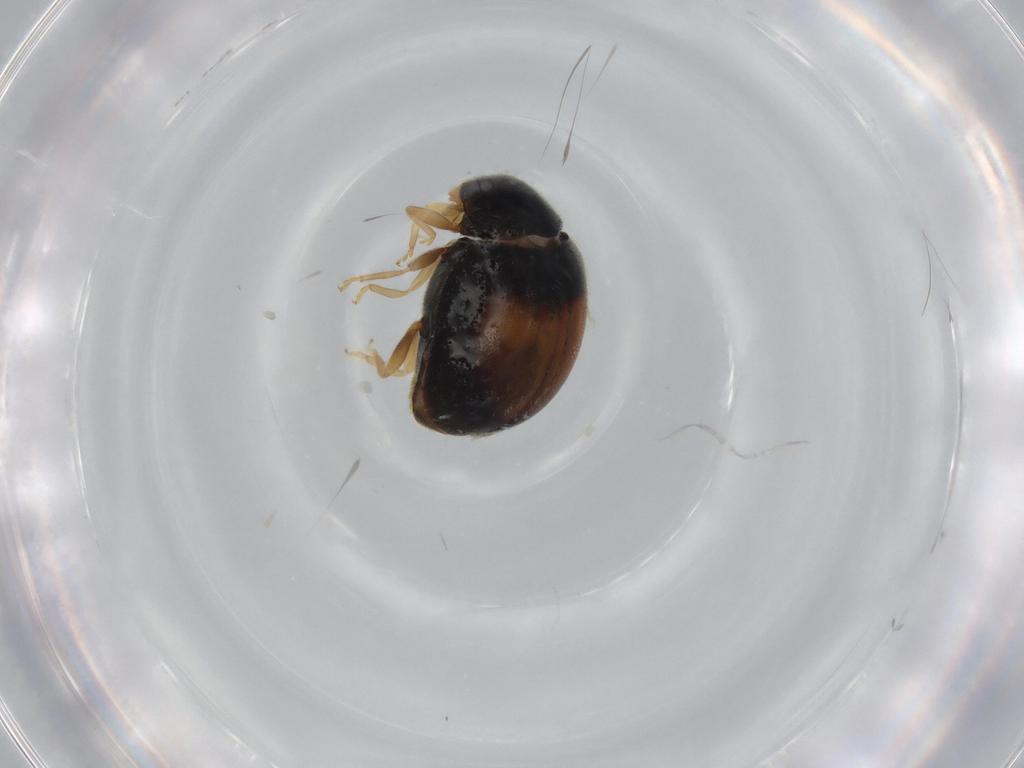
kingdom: Animalia
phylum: Arthropoda
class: Insecta
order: Coleoptera
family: Coccinellidae
